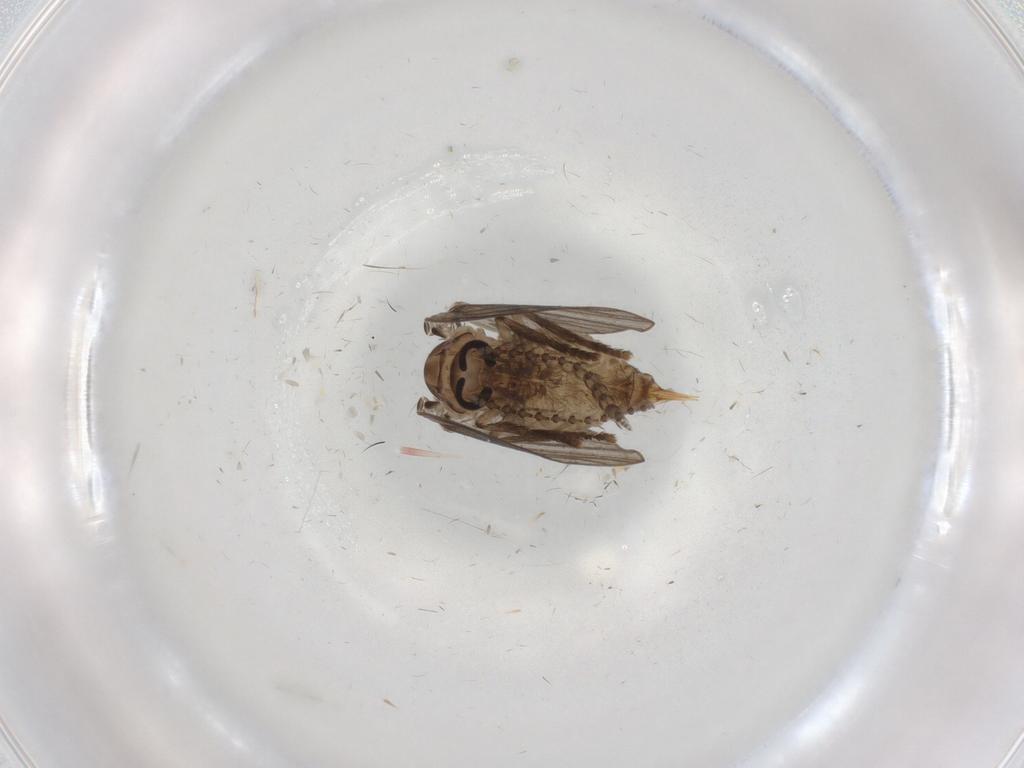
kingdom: Animalia
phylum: Arthropoda
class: Insecta
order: Diptera
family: Psychodidae
